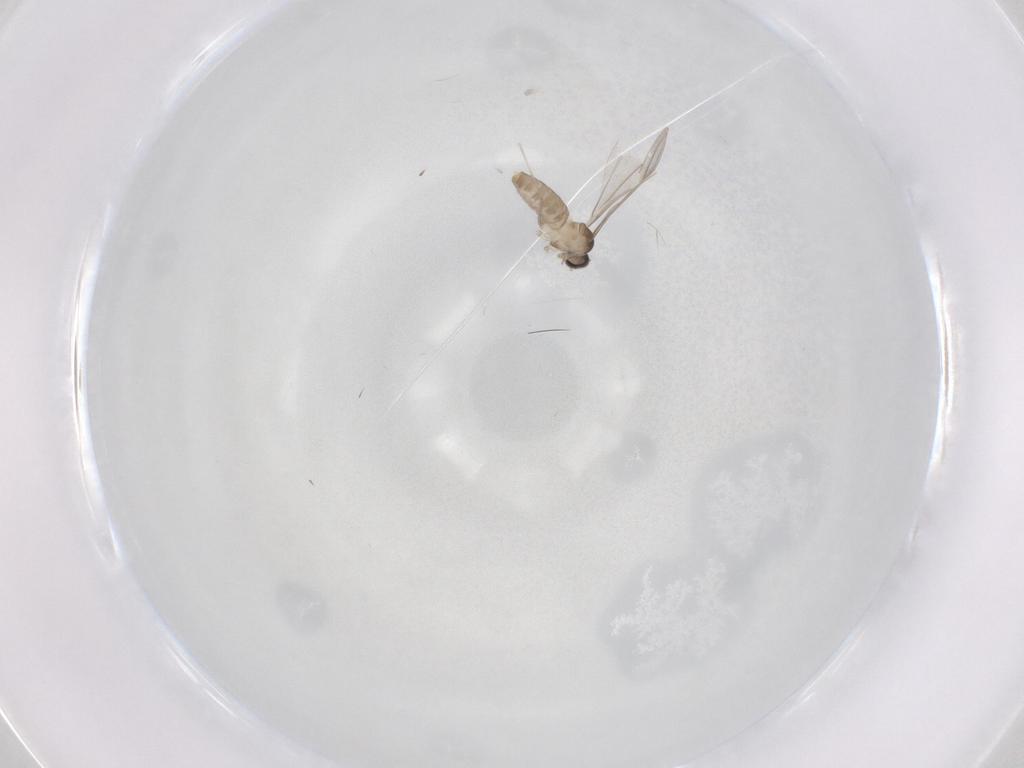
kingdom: Animalia
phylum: Arthropoda
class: Insecta
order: Diptera
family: Cecidomyiidae
